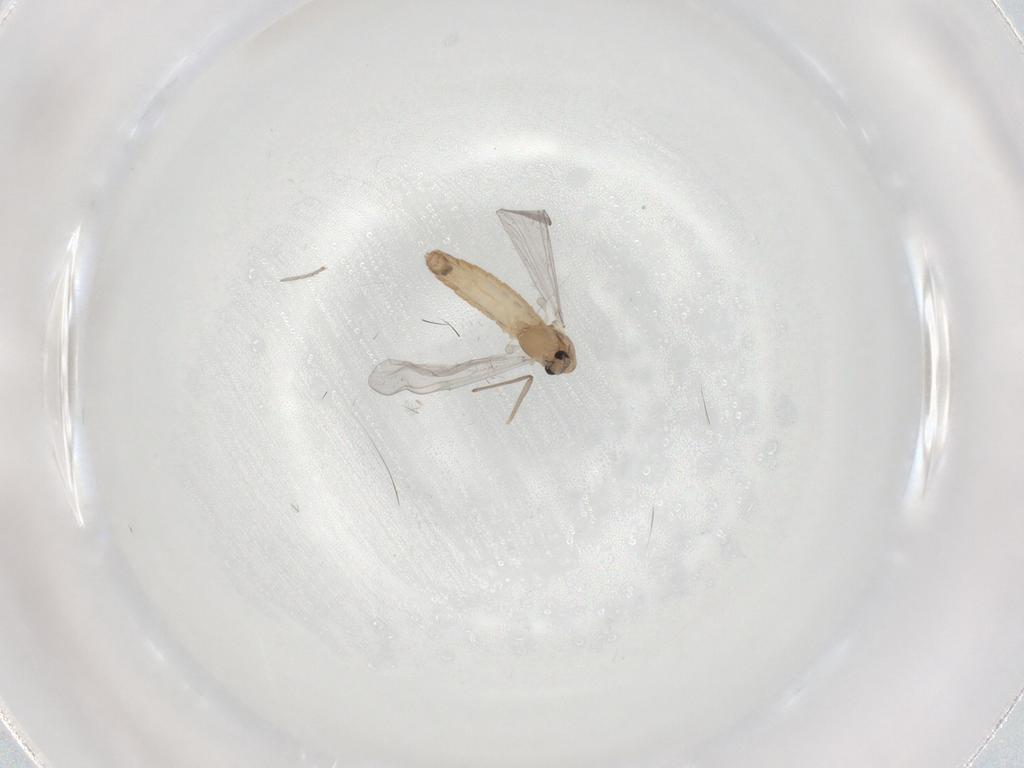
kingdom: Animalia
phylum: Arthropoda
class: Insecta
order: Diptera
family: Chironomidae
